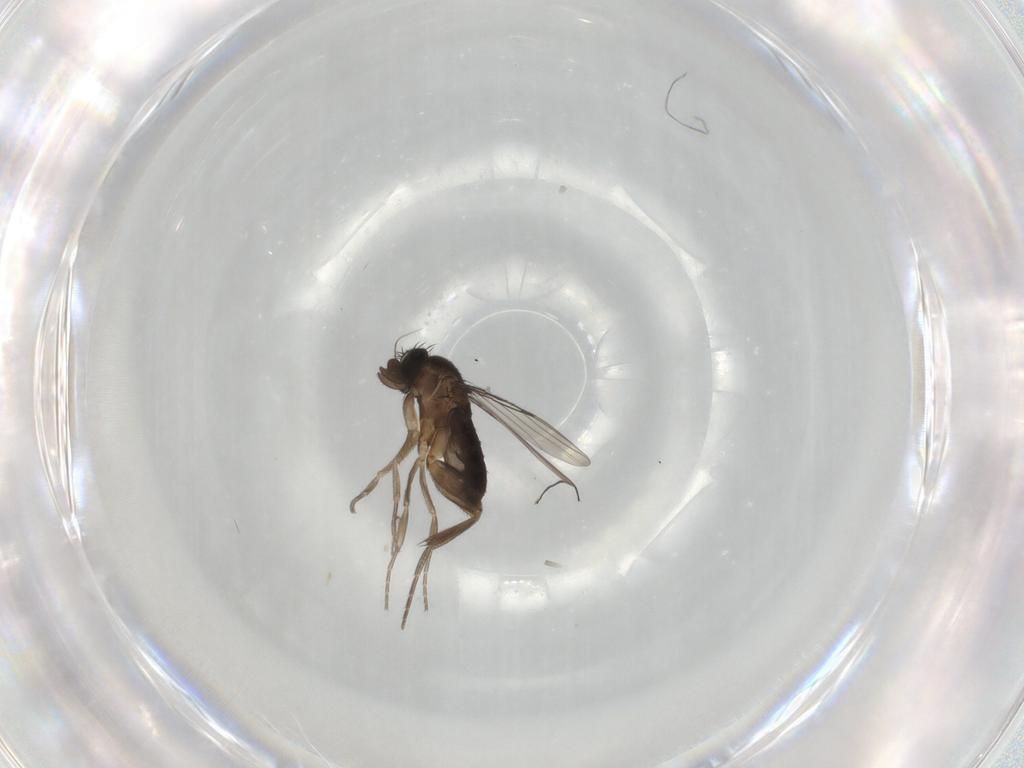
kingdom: Animalia
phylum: Arthropoda
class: Insecta
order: Diptera
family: Phoridae
